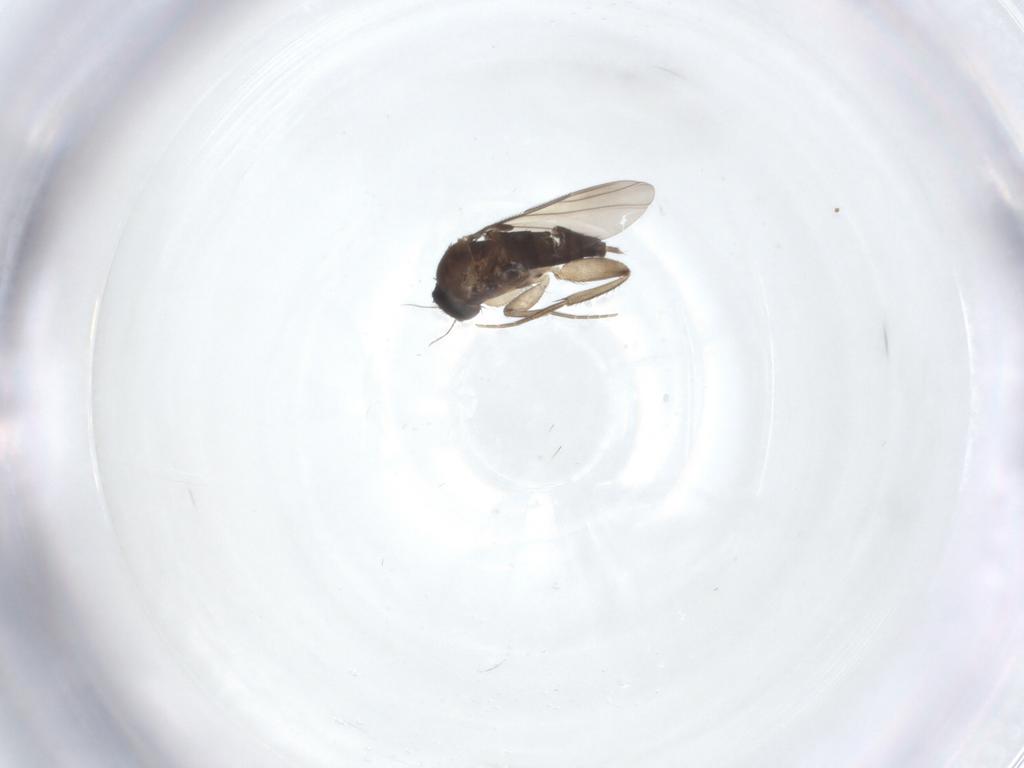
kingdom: Animalia
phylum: Arthropoda
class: Insecta
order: Diptera
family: Phoridae
